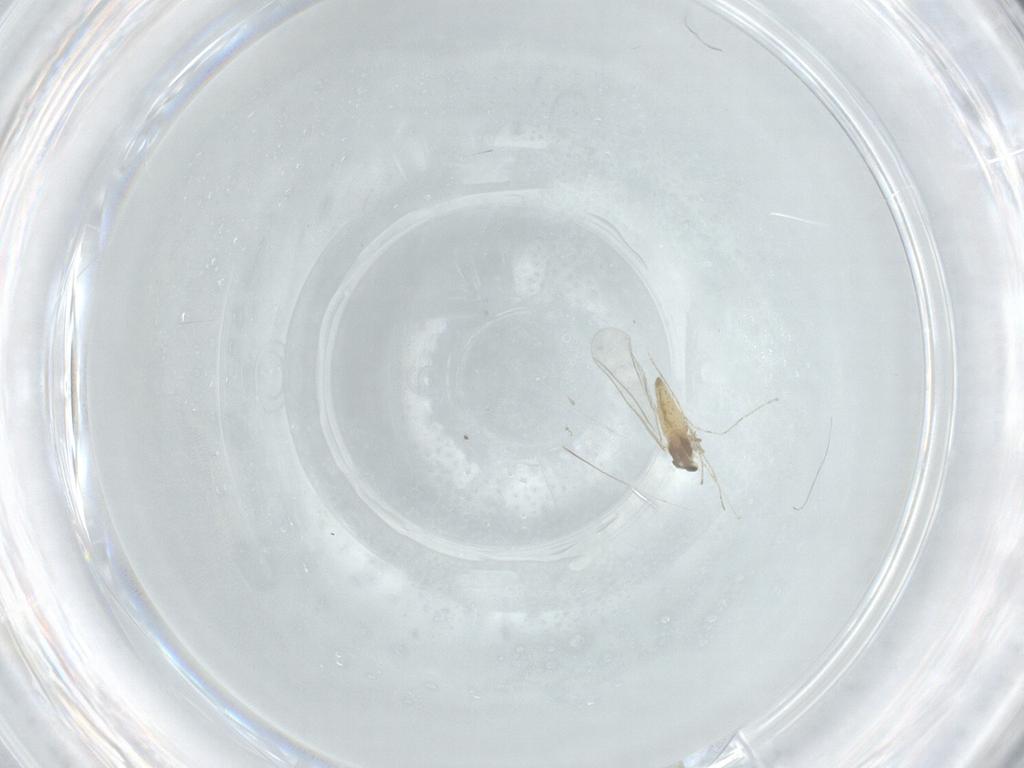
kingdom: Animalia
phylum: Arthropoda
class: Insecta
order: Diptera
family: Cecidomyiidae
